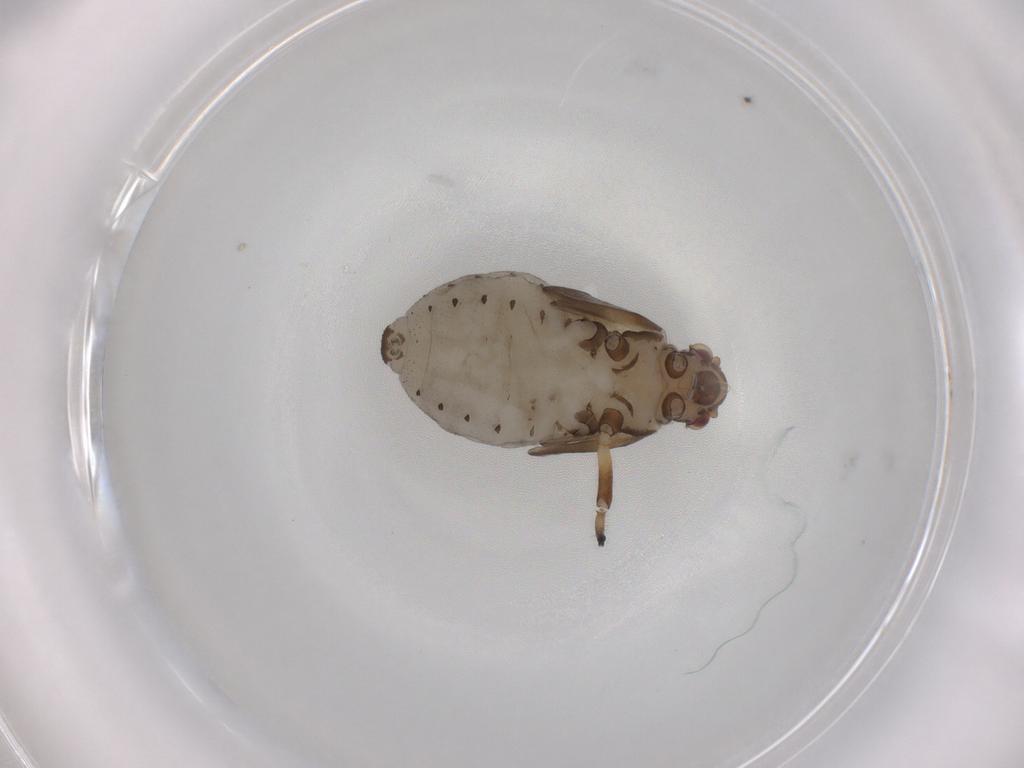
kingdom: Animalia
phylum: Arthropoda
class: Insecta
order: Hemiptera
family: Aphididae
